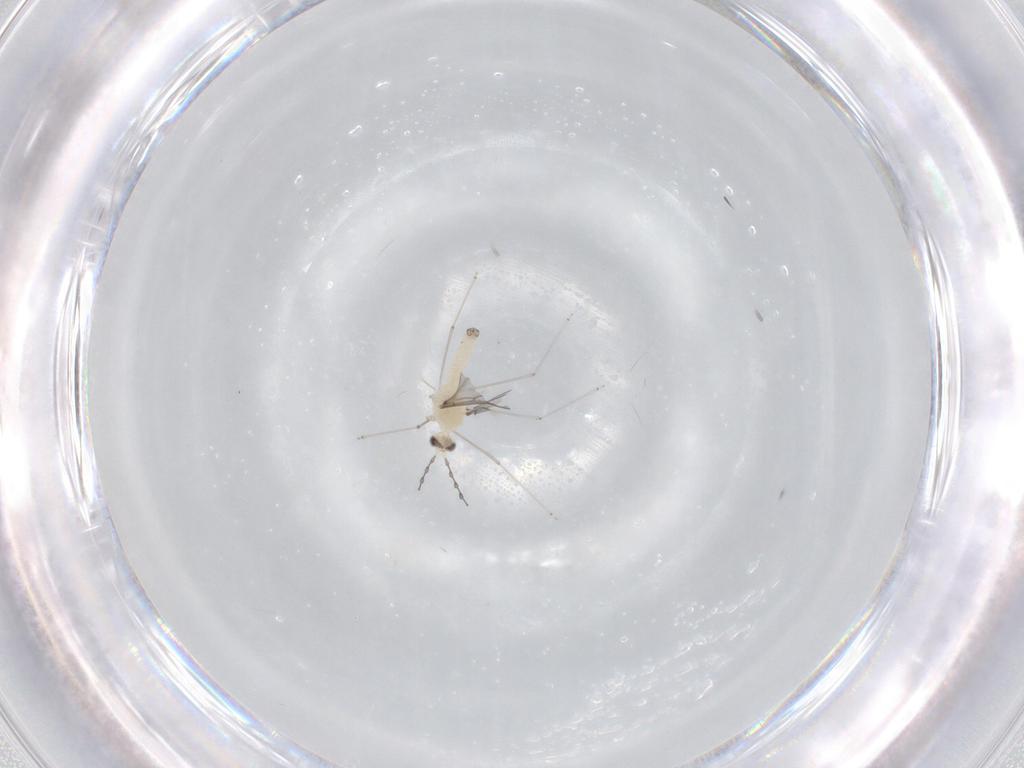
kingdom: Animalia
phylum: Arthropoda
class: Insecta
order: Diptera
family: Cecidomyiidae
